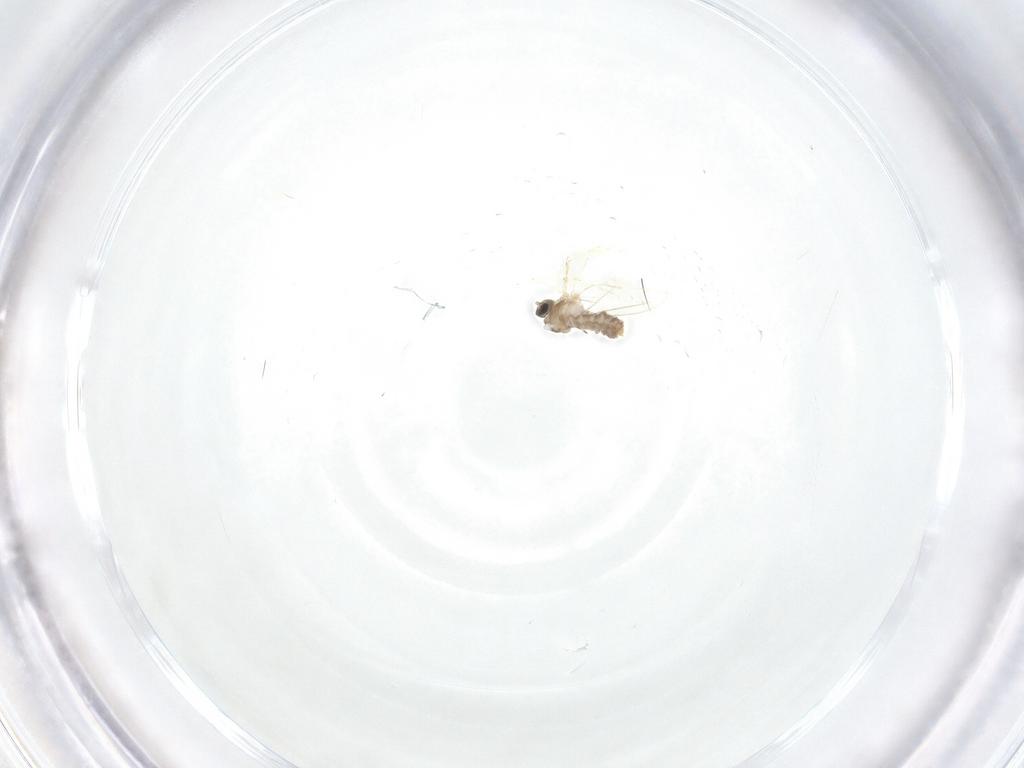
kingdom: Animalia
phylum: Arthropoda
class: Insecta
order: Diptera
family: Cecidomyiidae
